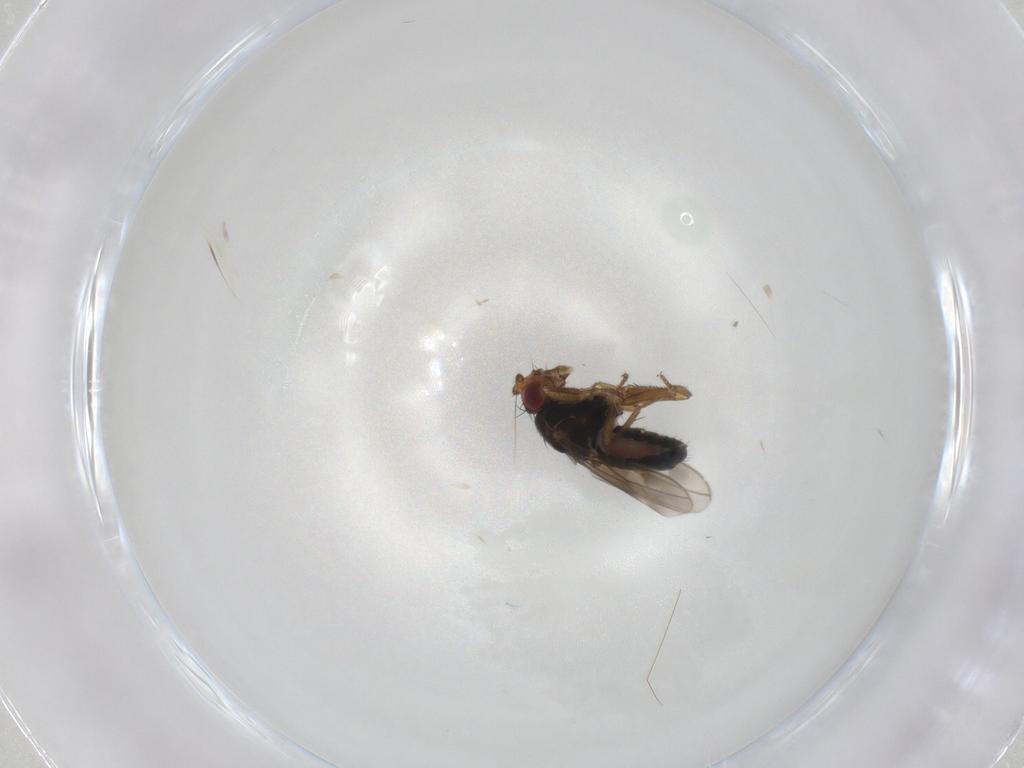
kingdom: Animalia
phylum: Arthropoda
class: Insecta
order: Diptera
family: Sphaeroceridae
